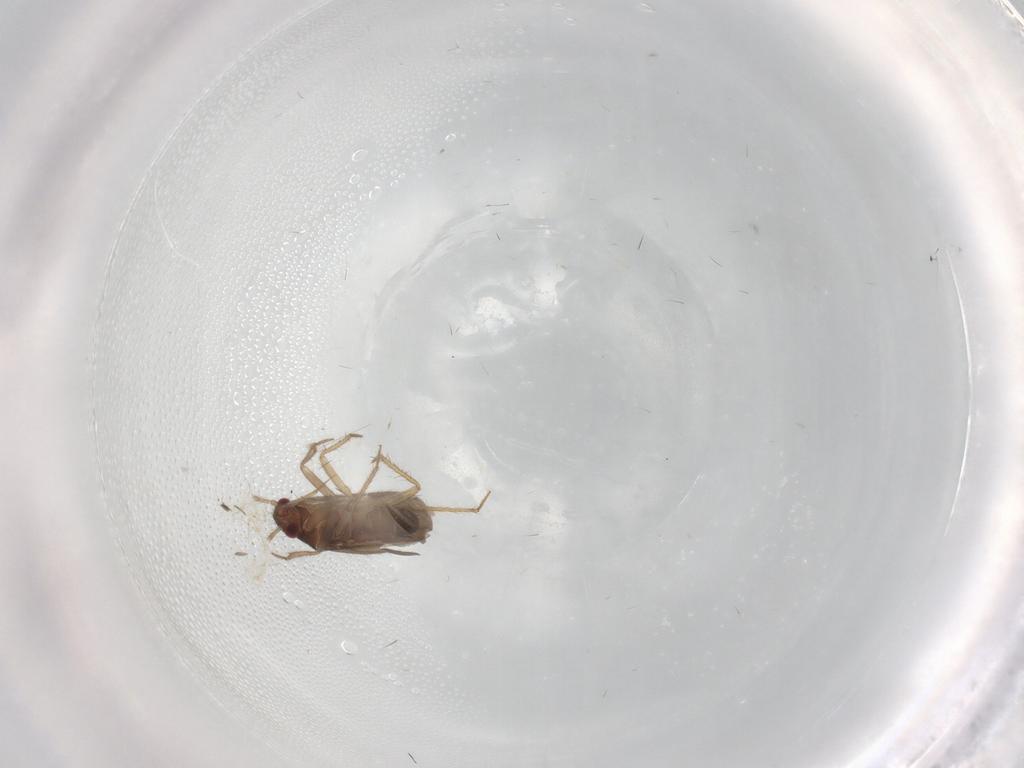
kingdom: Animalia
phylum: Arthropoda
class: Insecta
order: Hemiptera
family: Ceratocombidae
